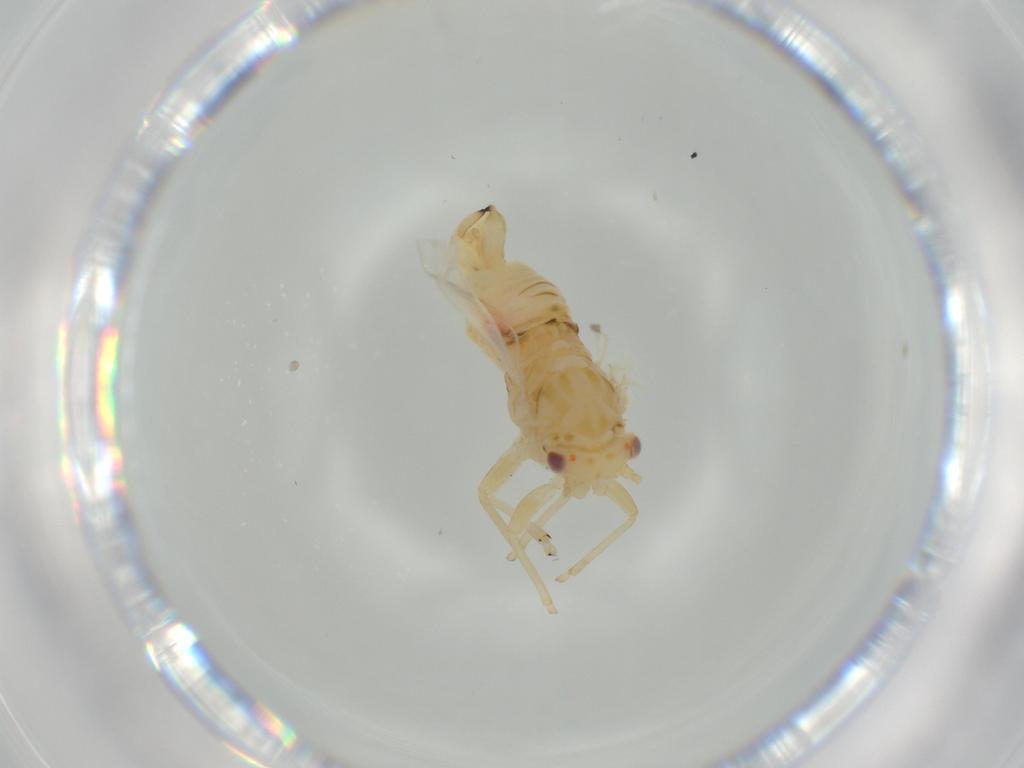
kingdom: Animalia
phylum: Arthropoda
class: Insecta
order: Hemiptera
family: Psyllidae
